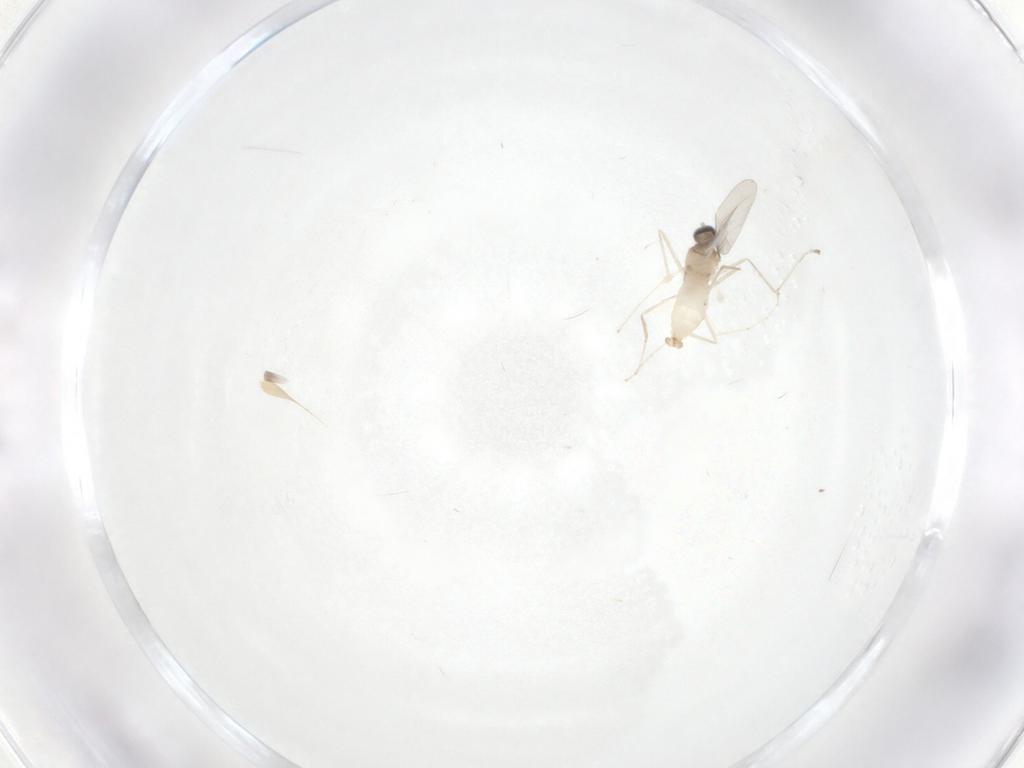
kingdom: Animalia
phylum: Arthropoda
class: Insecta
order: Diptera
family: Cecidomyiidae
